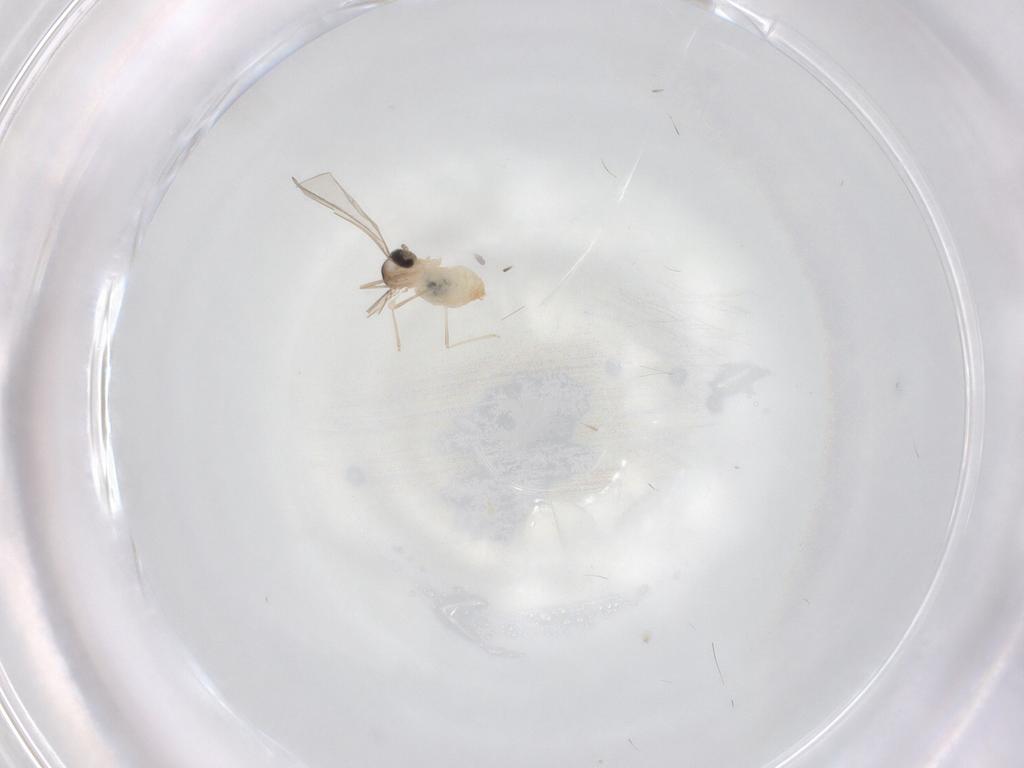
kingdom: Animalia
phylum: Arthropoda
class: Insecta
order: Diptera
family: Cecidomyiidae
